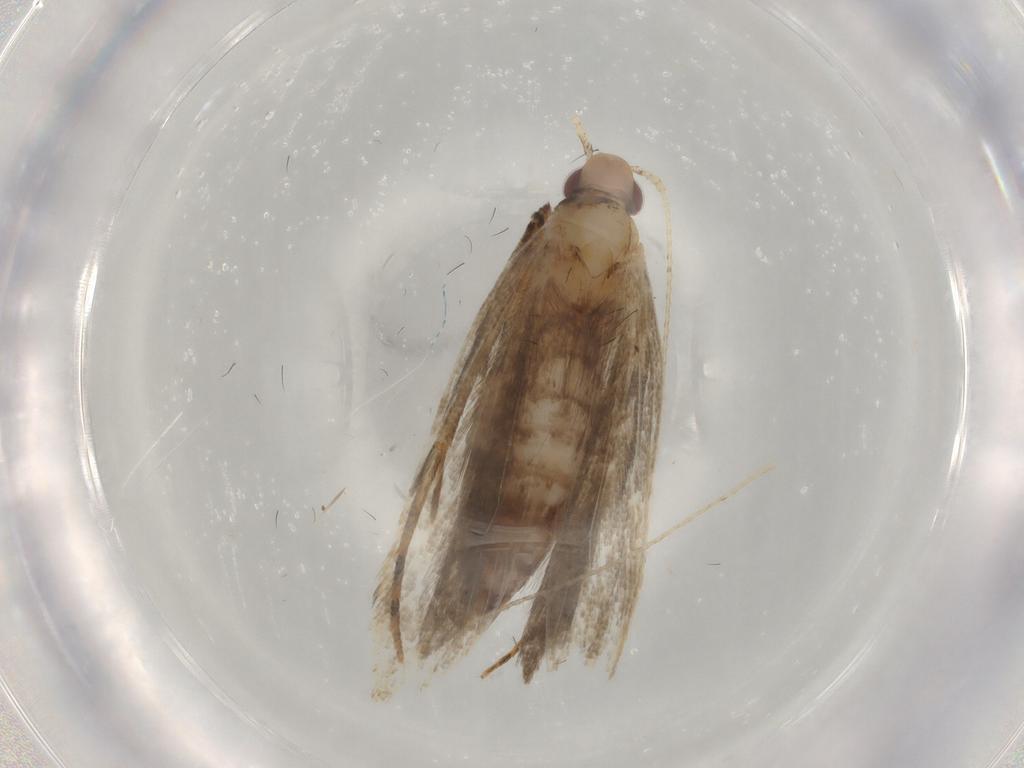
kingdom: Animalia
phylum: Arthropoda
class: Insecta
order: Lepidoptera
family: Gelechiidae
